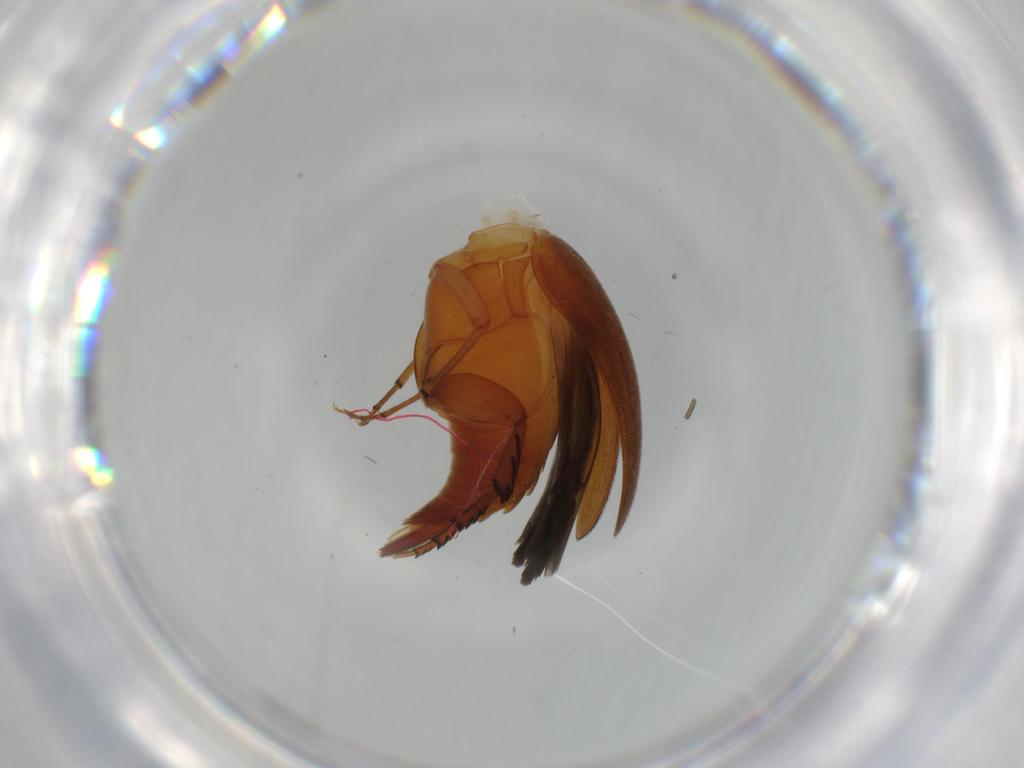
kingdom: Animalia
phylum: Arthropoda
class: Insecta
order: Coleoptera
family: Mordellidae
